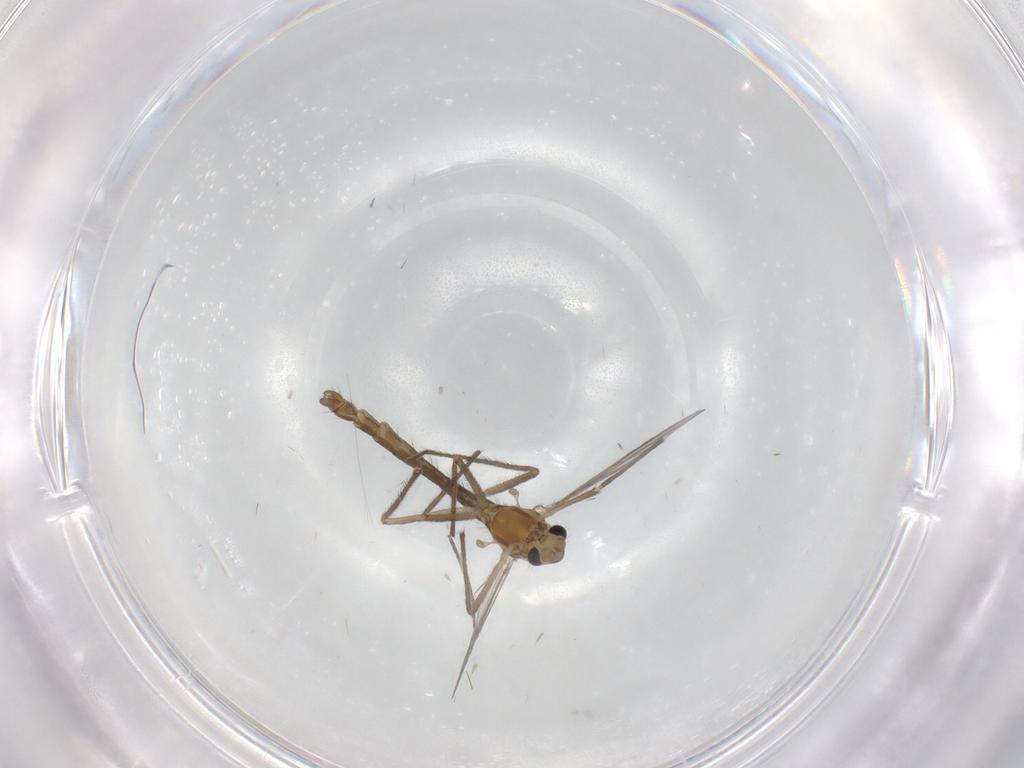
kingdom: Animalia
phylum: Arthropoda
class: Insecta
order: Diptera
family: Chironomidae
